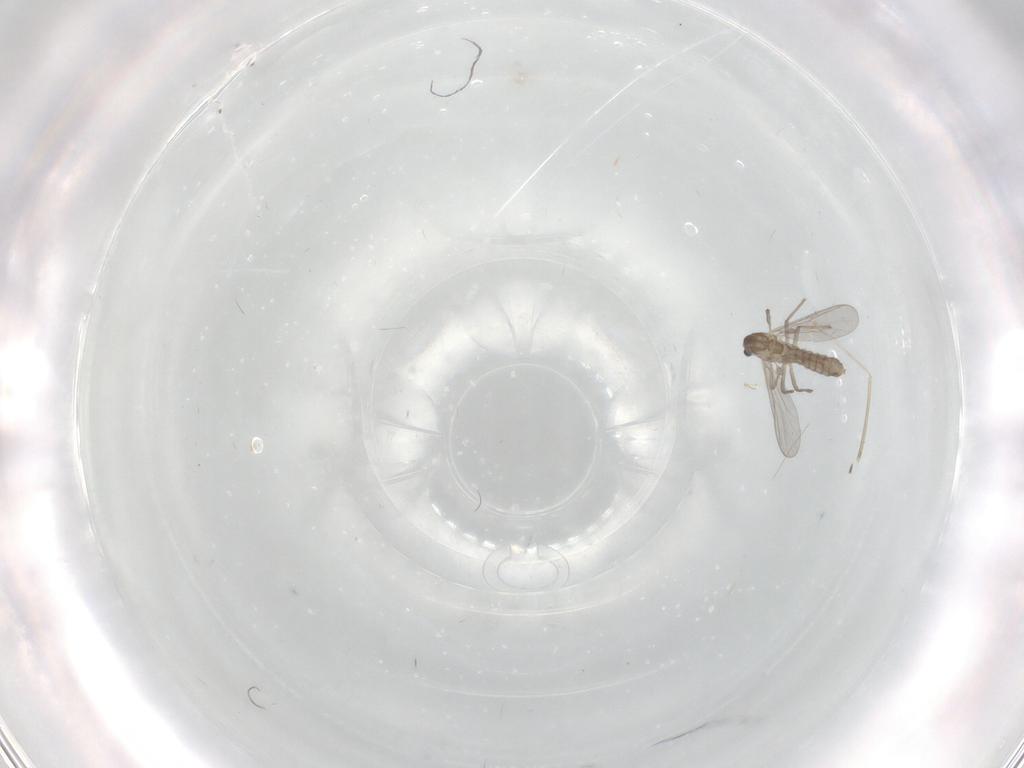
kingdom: Animalia
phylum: Arthropoda
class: Insecta
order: Diptera
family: Chironomidae
